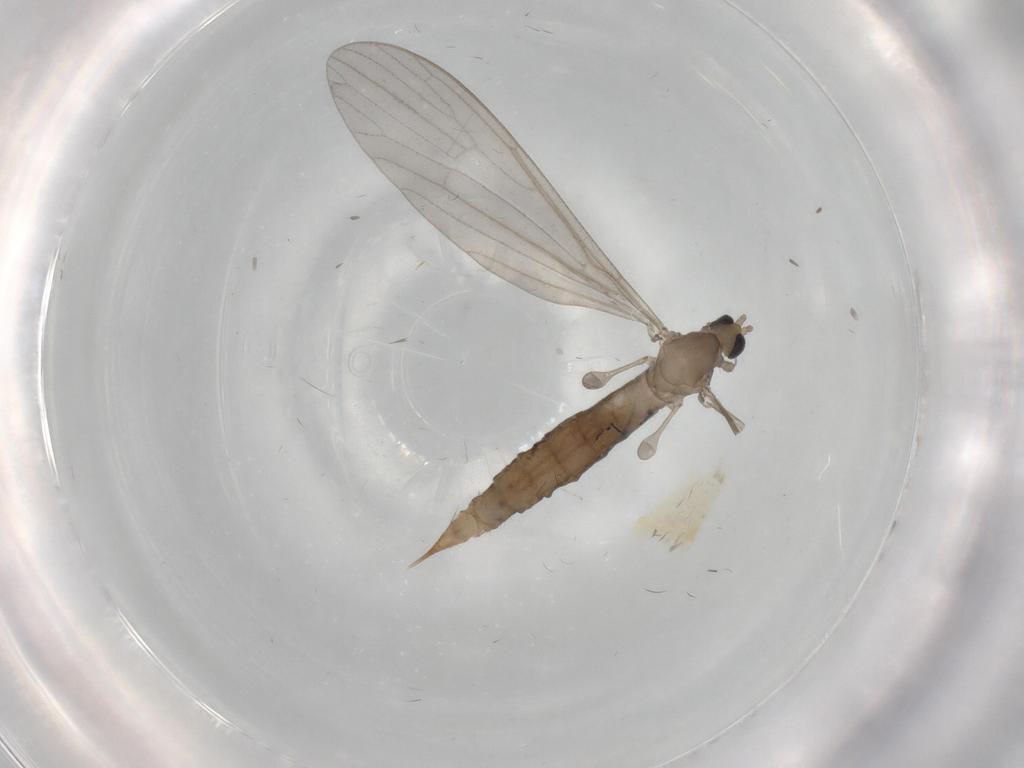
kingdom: Animalia
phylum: Arthropoda
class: Insecta
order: Diptera
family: Limoniidae
